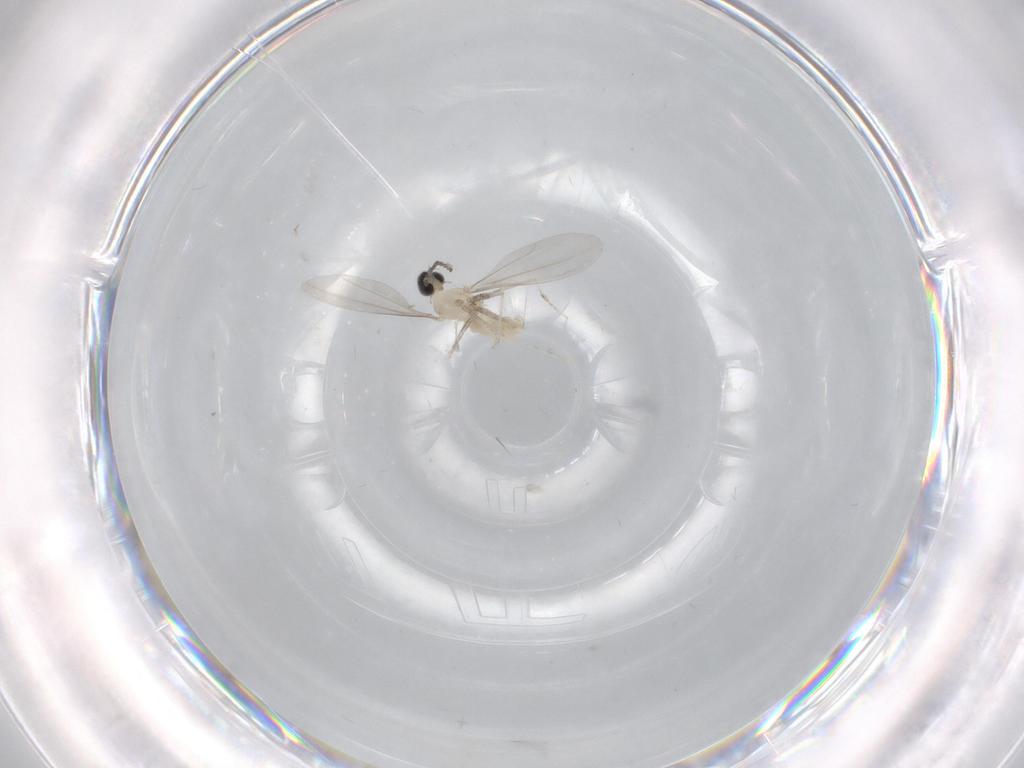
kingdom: Animalia
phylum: Arthropoda
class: Insecta
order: Diptera
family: Cecidomyiidae
